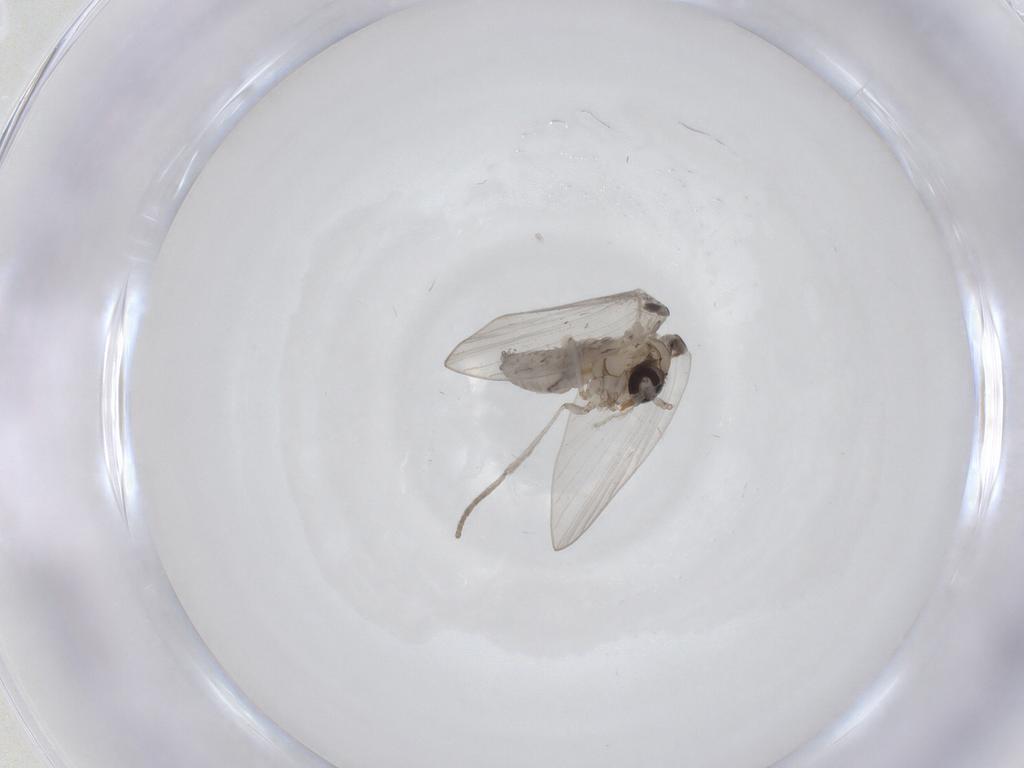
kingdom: Animalia
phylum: Arthropoda
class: Insecta
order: Diptera
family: Psychodidae
